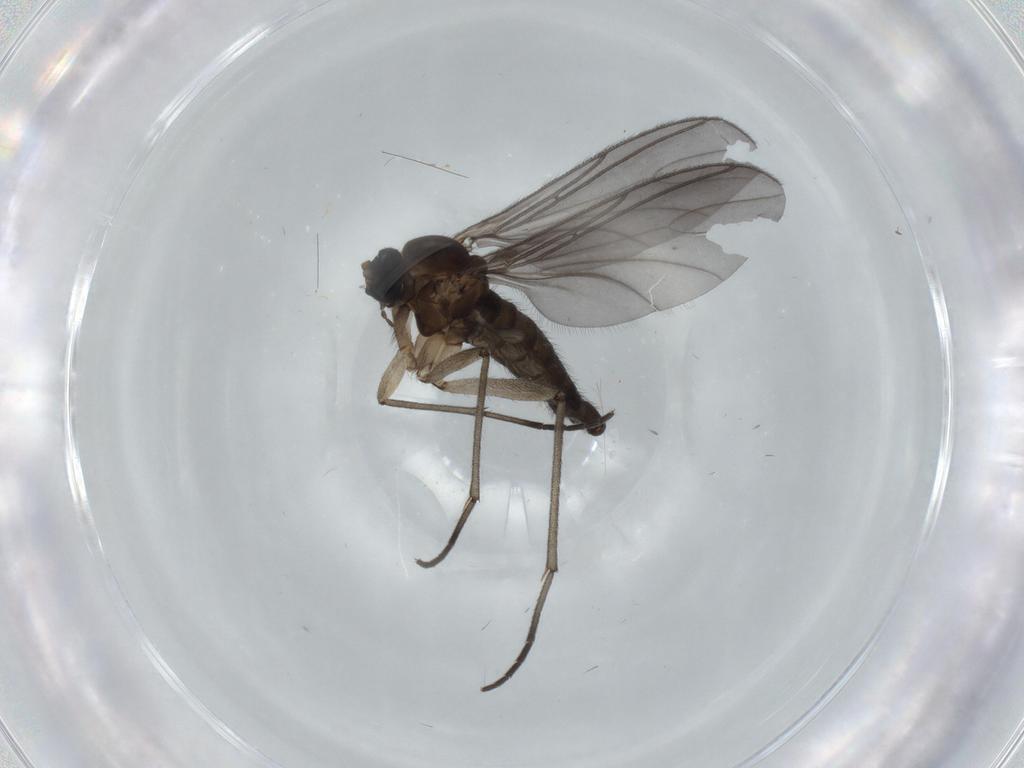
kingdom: Animalia
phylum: Arthropoda
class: Insecta
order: Diptera
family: Sciaridae
